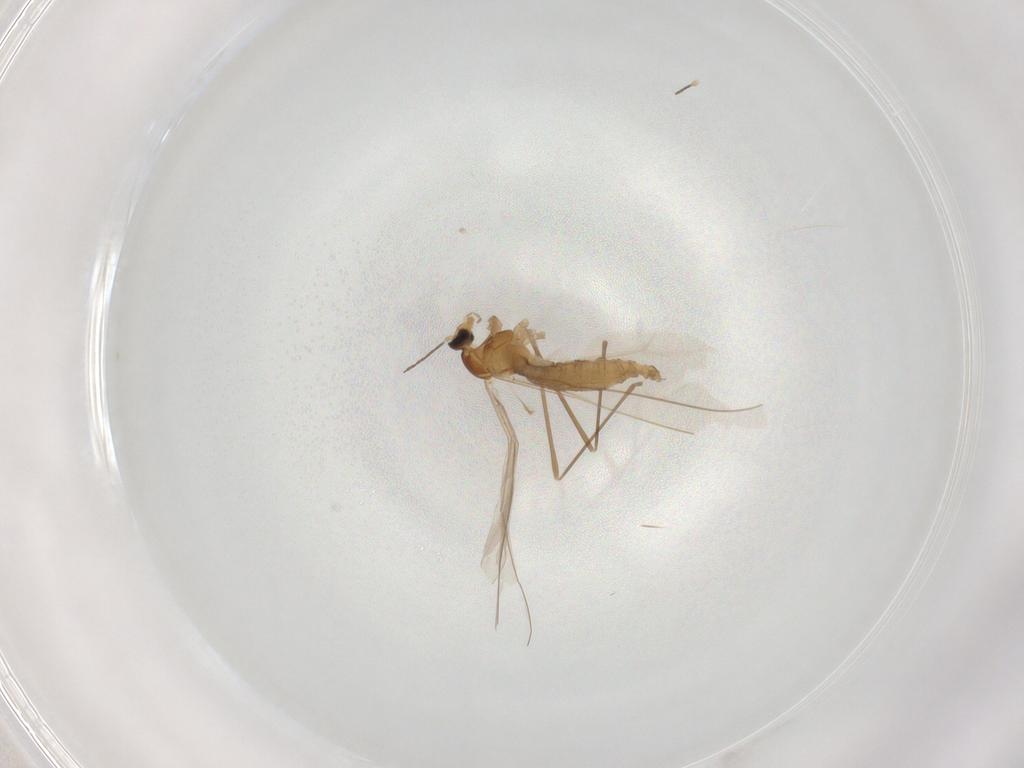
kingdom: Animalia
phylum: Arthropoda
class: Insecta
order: Diptera
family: Cecidomyiidae
